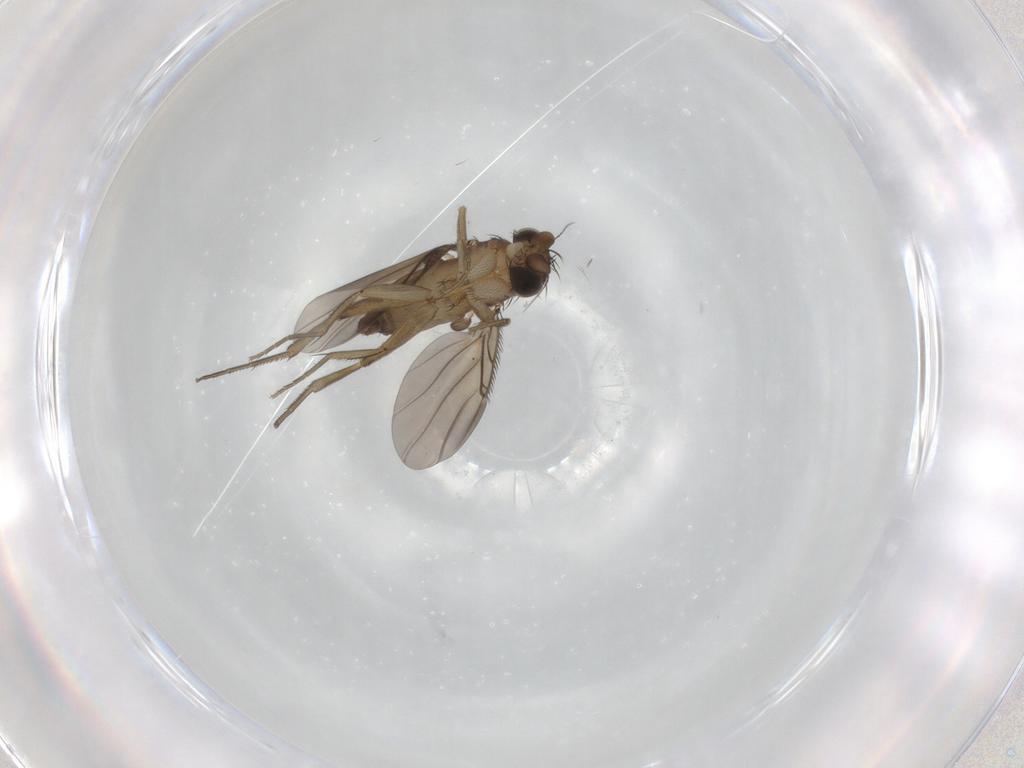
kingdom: Animalia
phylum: Arthropoda
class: Insecta
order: Diptera
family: Phoridae
